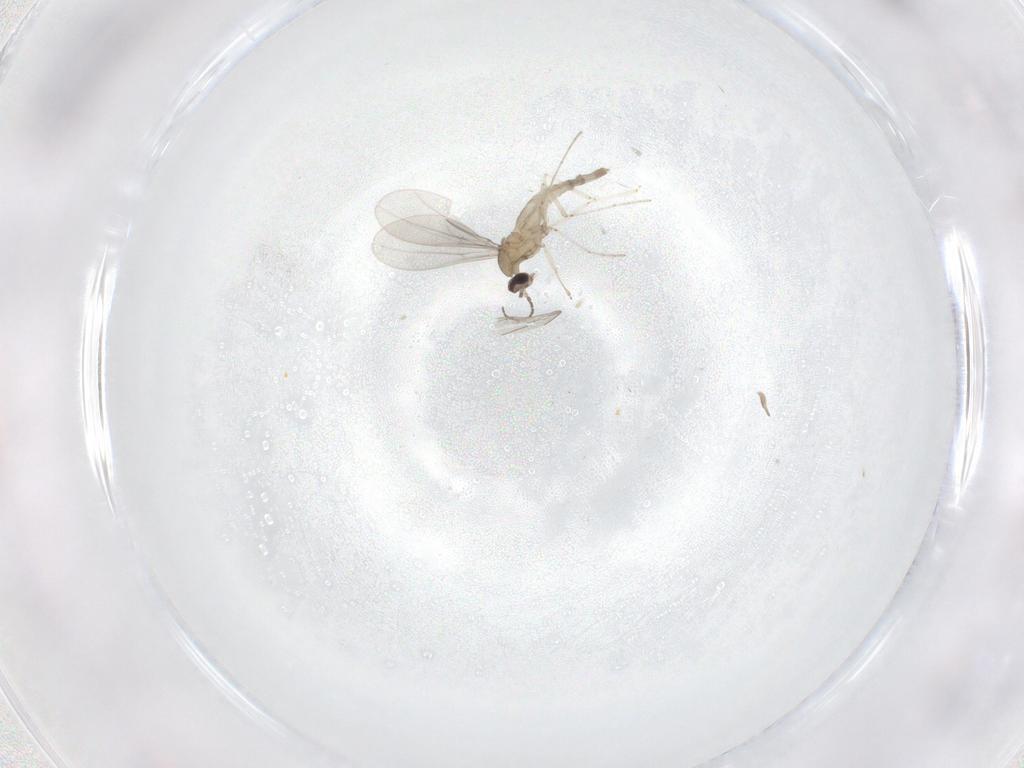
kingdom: Animalia
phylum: Arthropoda
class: Insecta
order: Diptera
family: Cecidomyiidae
